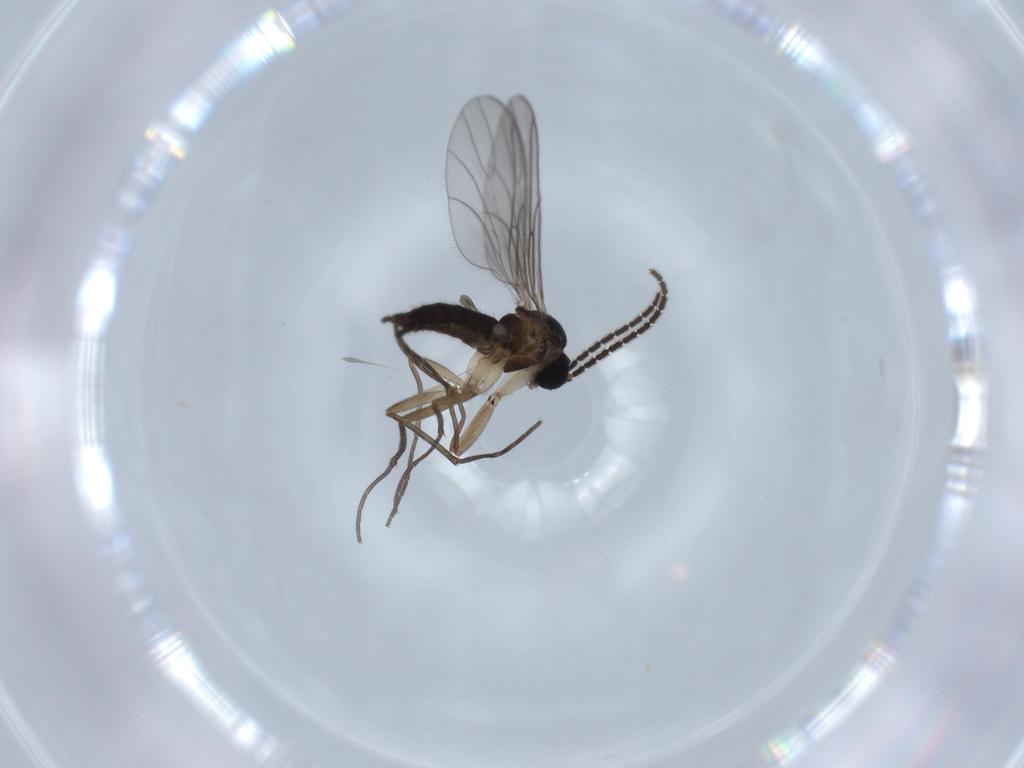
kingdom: Animalia
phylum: Arthropoda
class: Insecta
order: Diptera
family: Sciaridae
